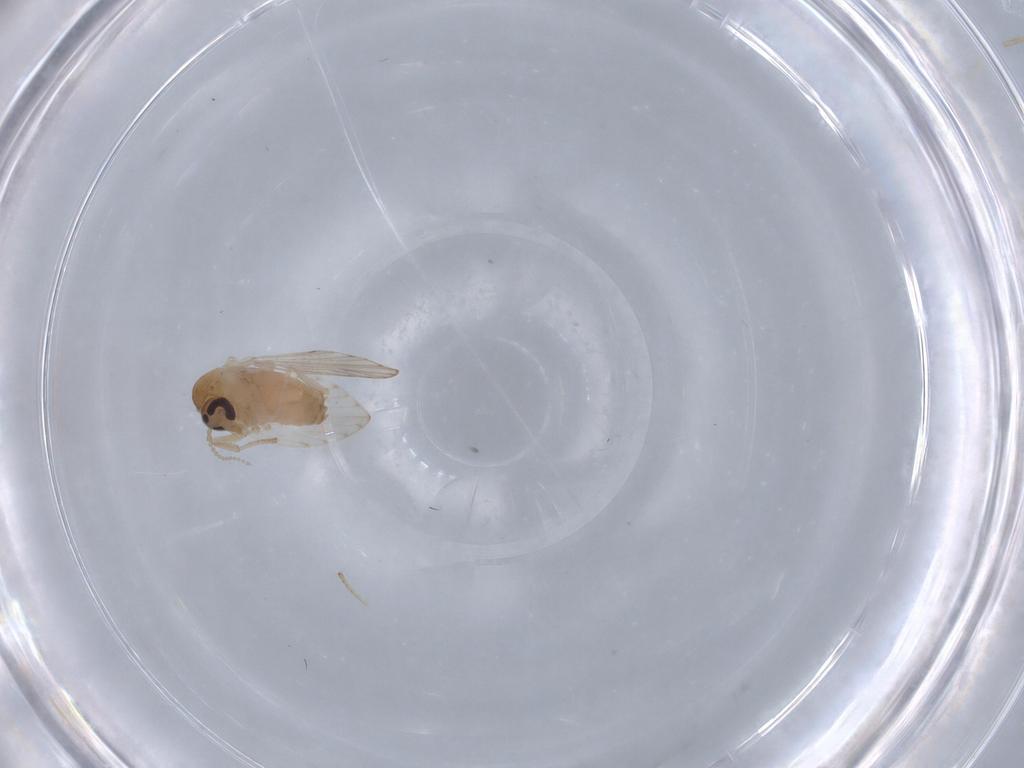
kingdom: Animalia
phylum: Arthropoda
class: Insecta
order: Diptera
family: Psychodidae
